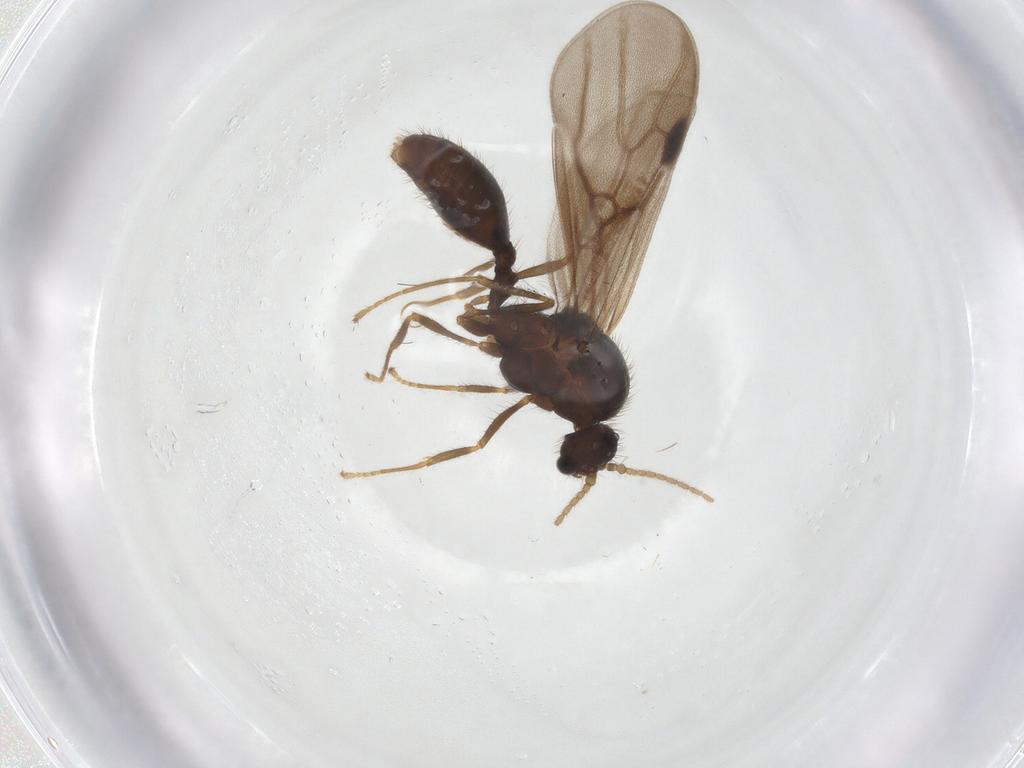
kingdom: Animalia
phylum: Arthropoda
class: Insecta
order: Hymenoptera
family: Formicidae
